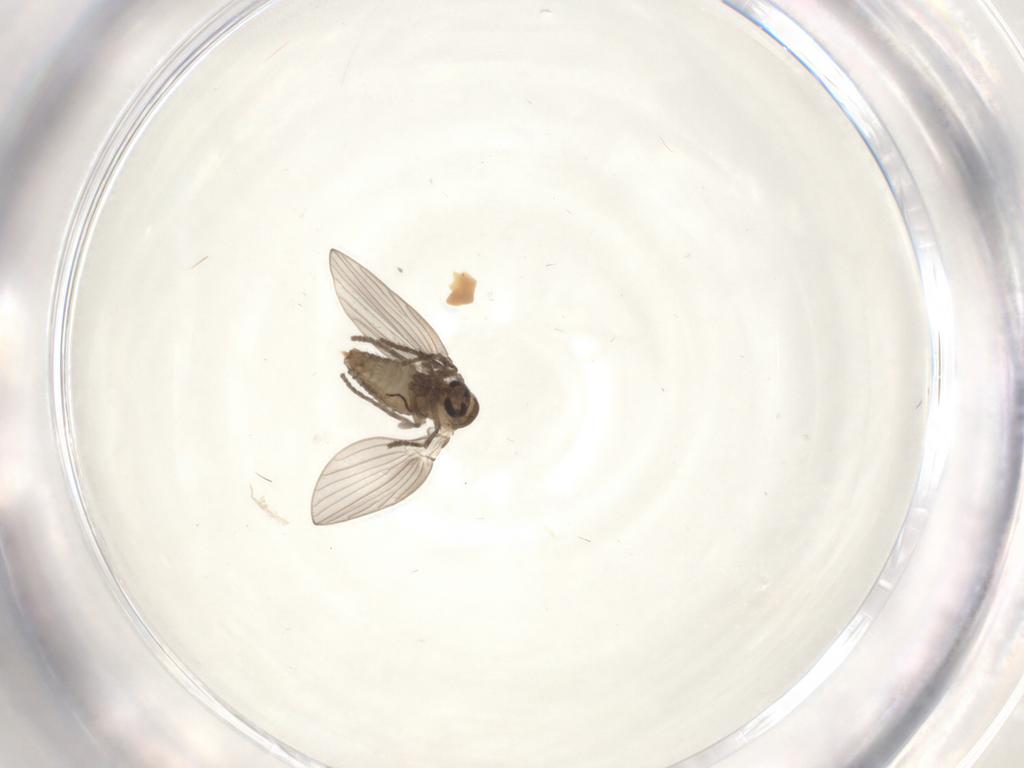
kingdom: Animalia
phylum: Arthropoda
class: Insecta
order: Diptera
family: Psychodidae
